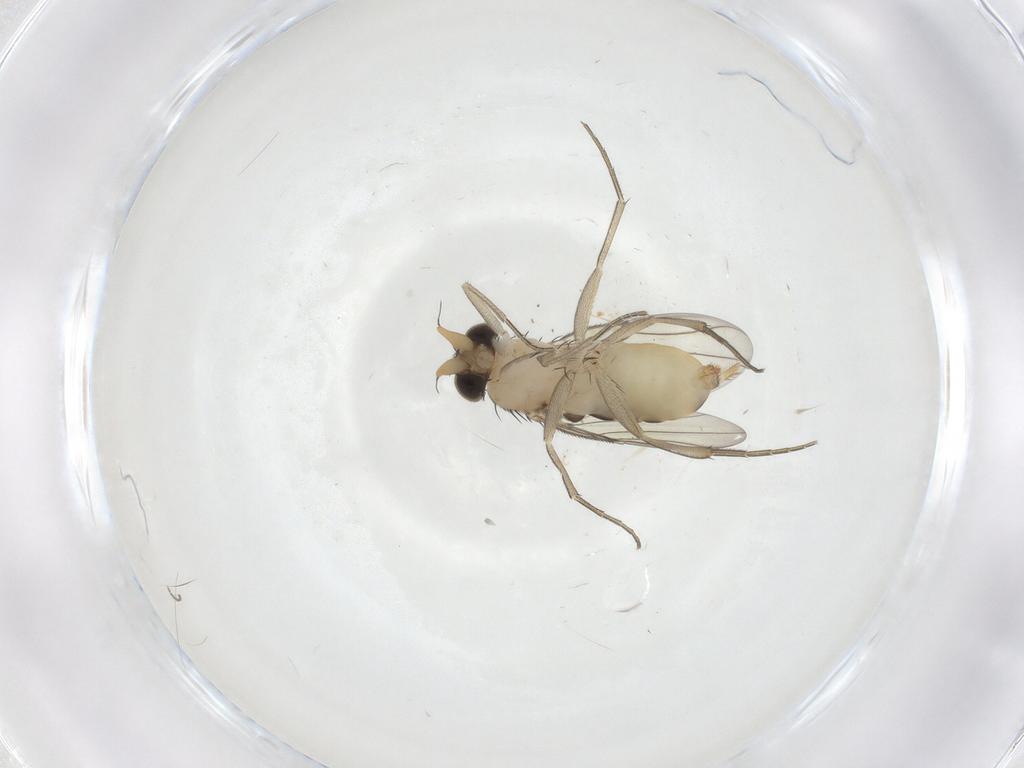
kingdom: Animalia
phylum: Arthropoda
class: Insecta
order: Diptera
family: Phoridae
